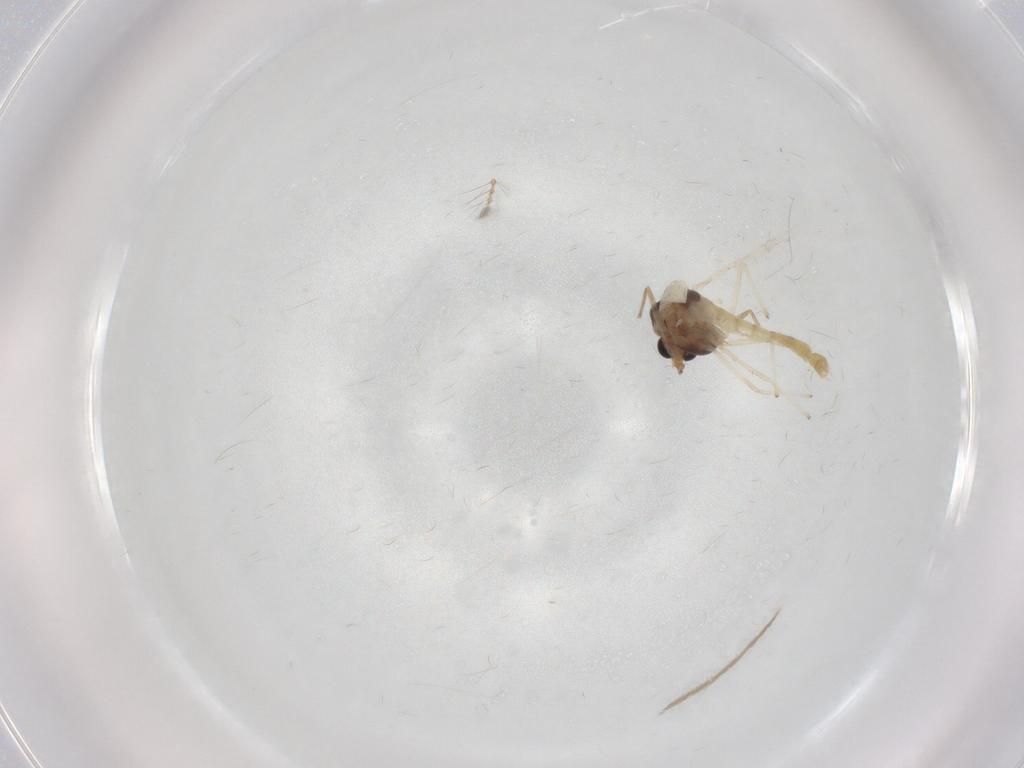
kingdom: Animalia
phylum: Arthropoda
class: Insecta
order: Diptera
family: Chironomidae
